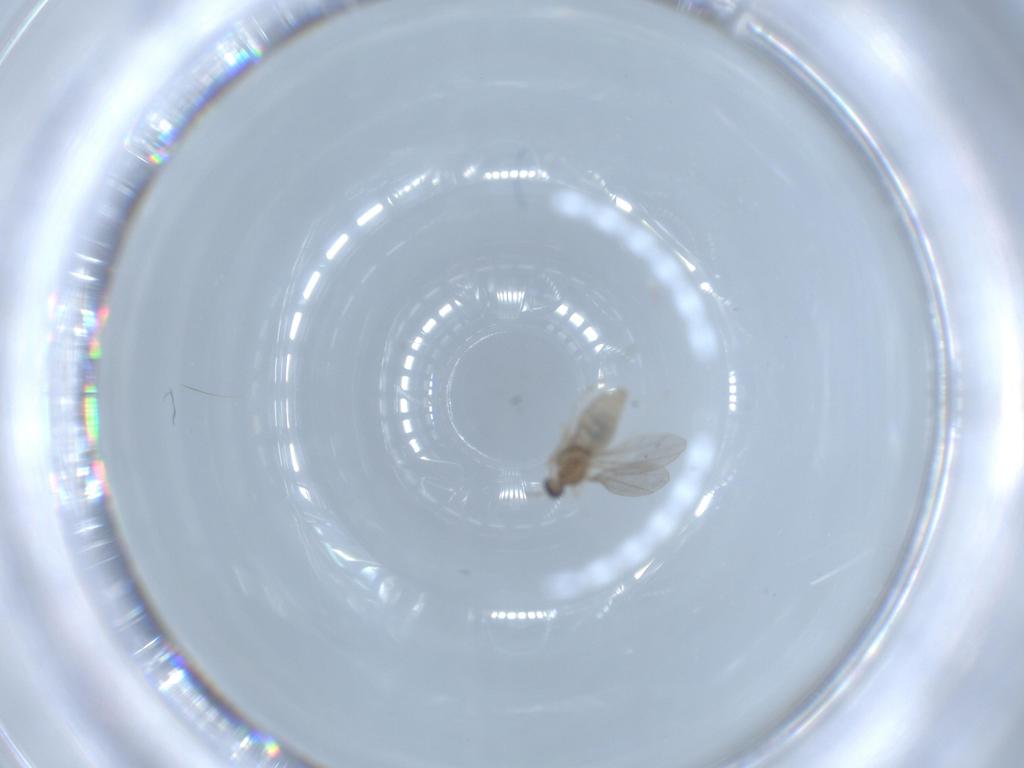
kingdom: Animalia
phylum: Arthropoda
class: Insecta
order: Diptera
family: Cecidomyiidae
